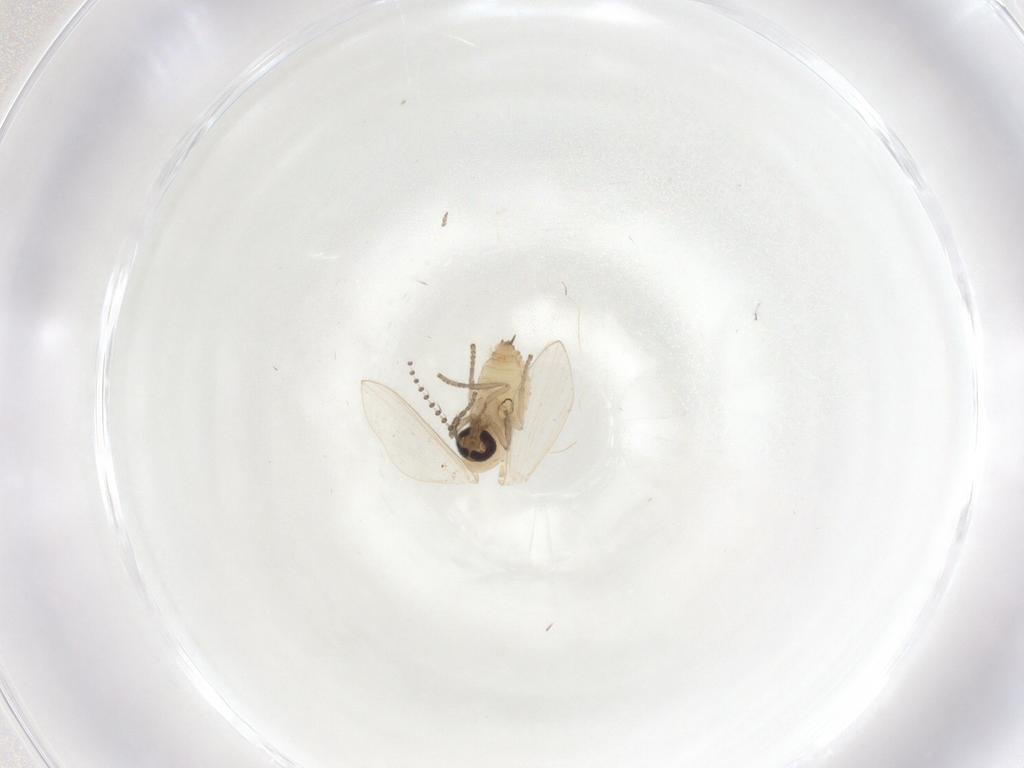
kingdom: Animalia
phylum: Arthropoda
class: Insecta
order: Diptera
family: Psychodidae
